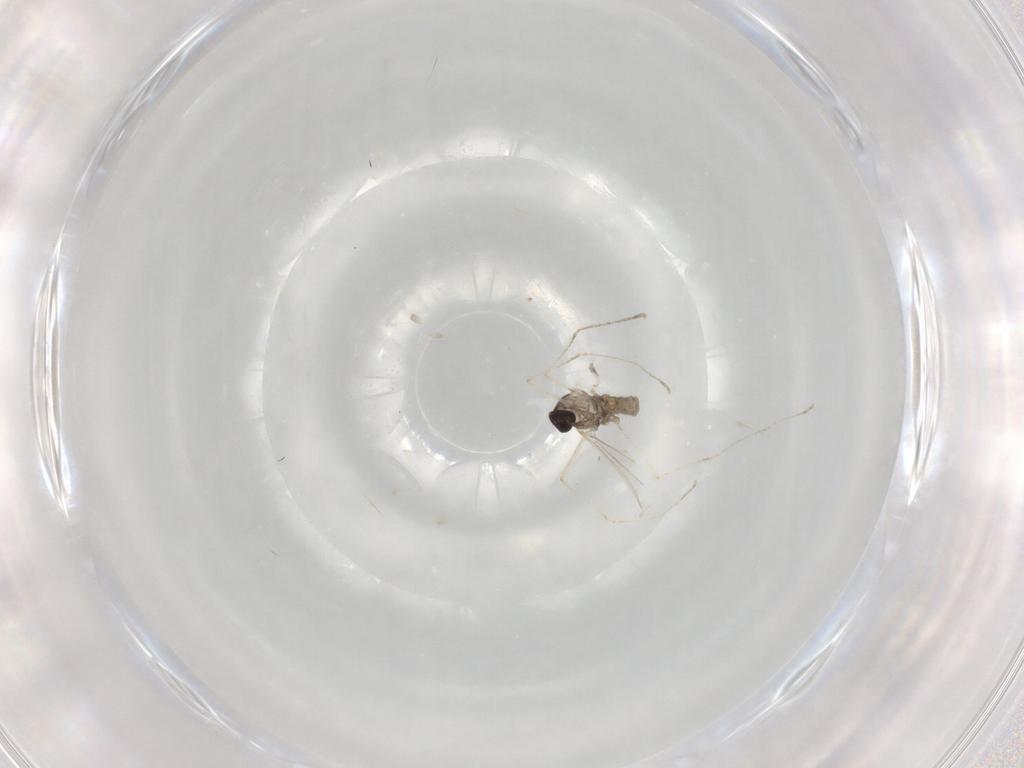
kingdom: Animalia
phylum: Arthropoda
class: Insecta
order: Diptera
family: Cecidomyiidae
